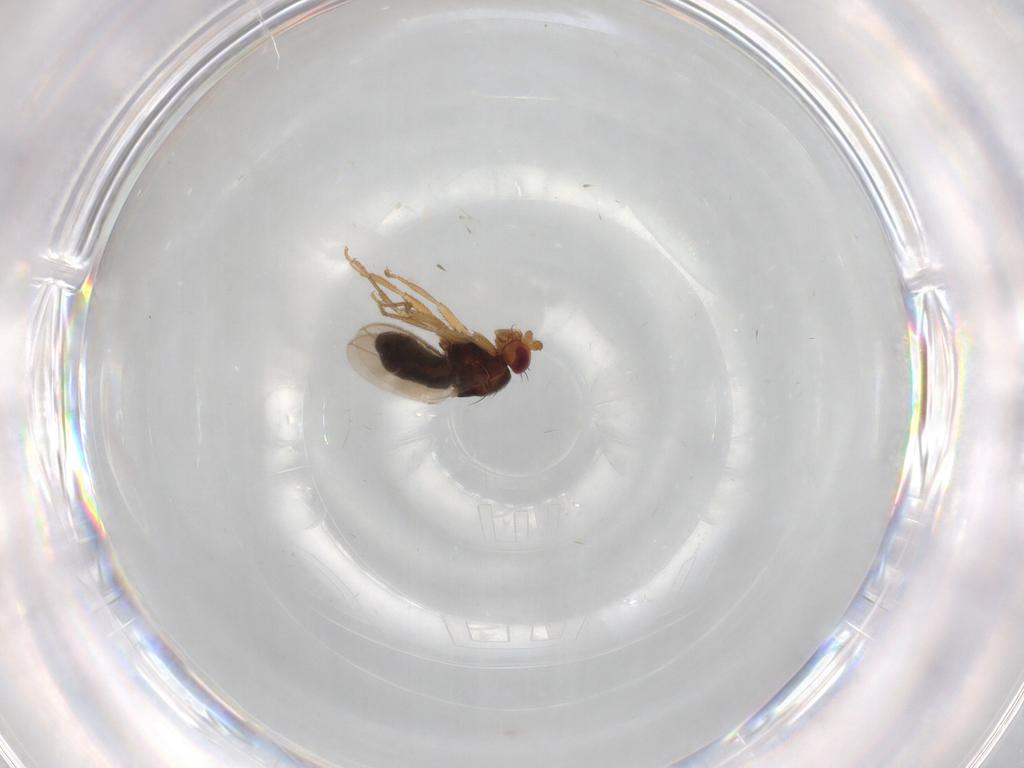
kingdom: Animalia
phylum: Arthropoda
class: Insecta
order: Diptera
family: Sphaeroceridae
